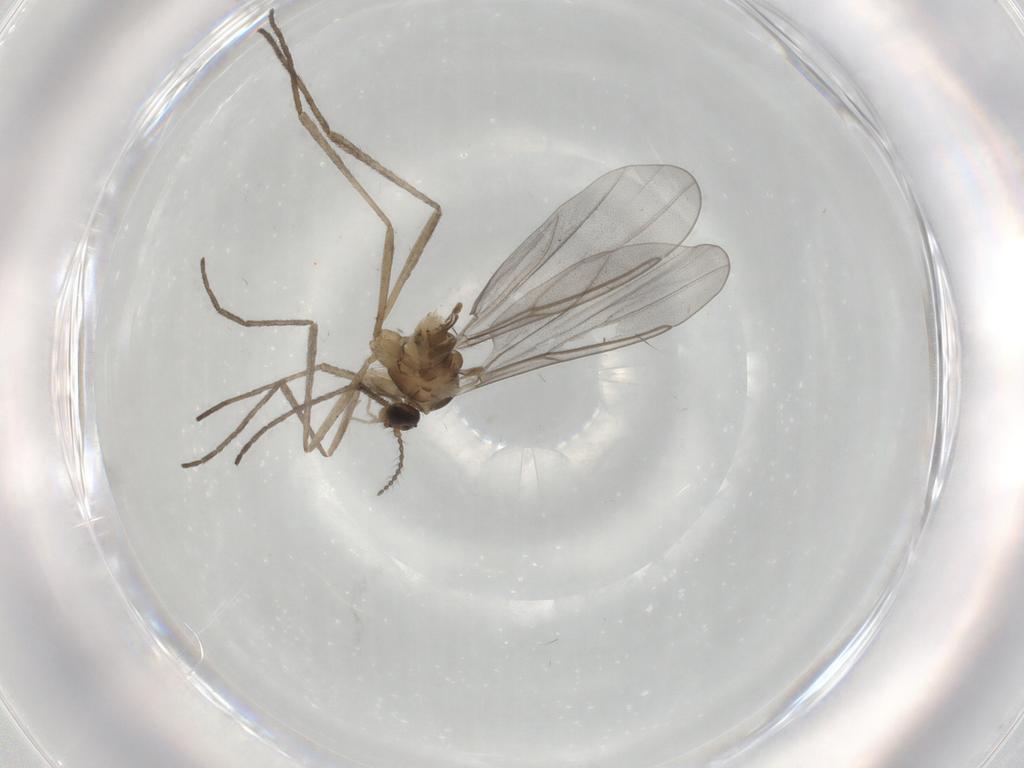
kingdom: Animalia
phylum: Arthropoda
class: Insecta
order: Diptera
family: Cecidomyiidae
